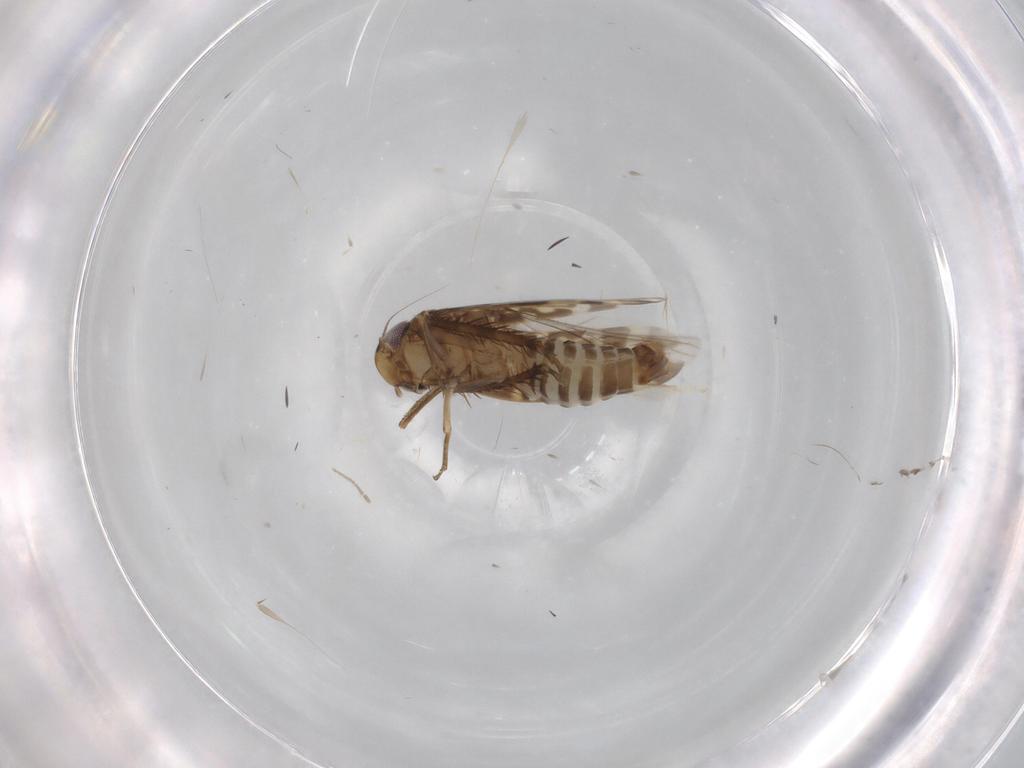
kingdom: Animalia
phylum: Arthropoda
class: Insecta
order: Hemiptera
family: Cicadellidae
